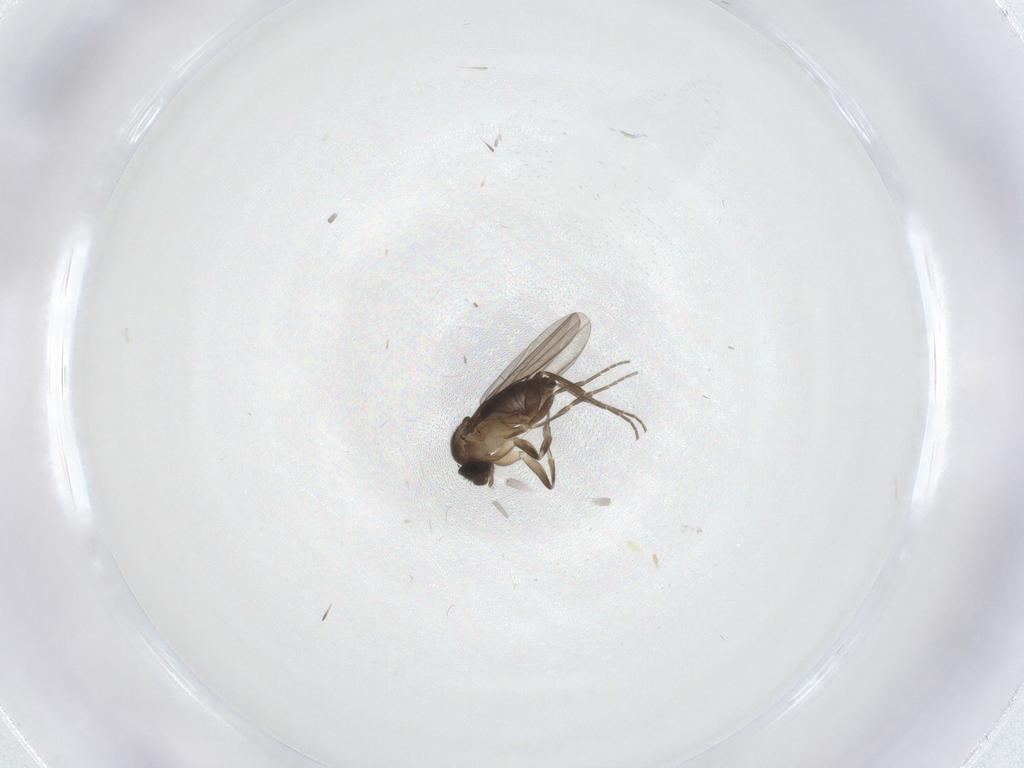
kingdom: Animalia
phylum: Arthropoda
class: Insecta
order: Diptera
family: Phoridae
